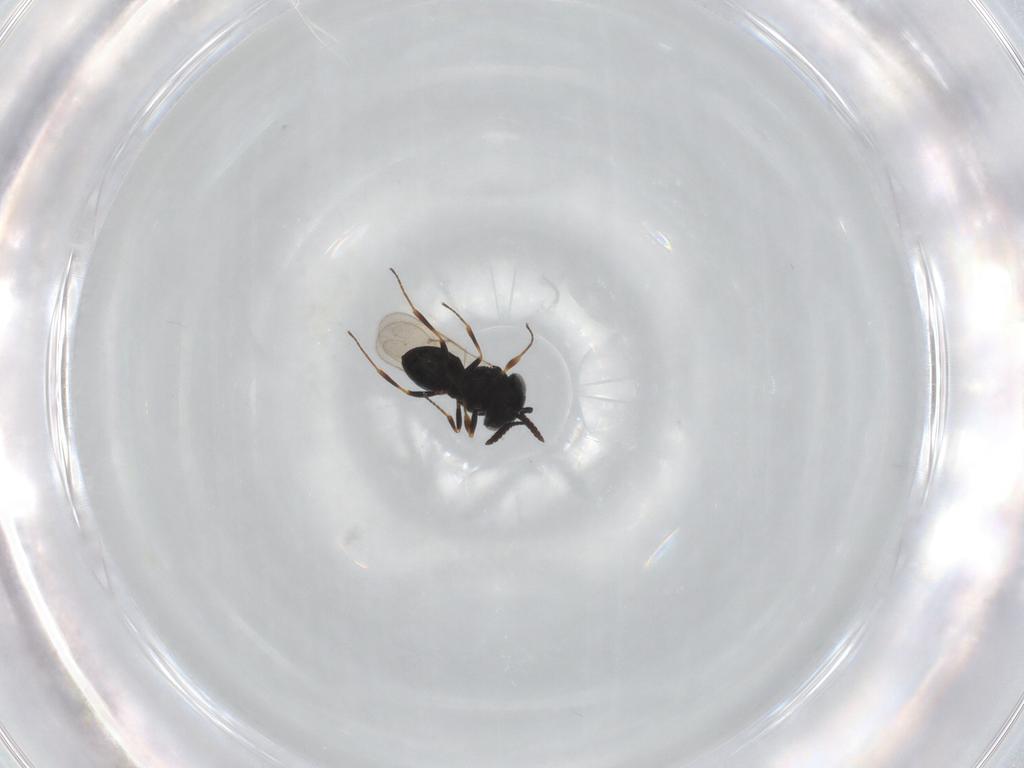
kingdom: Animalia
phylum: Arthropoda
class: Insecta
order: Hymenoptera
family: Scelionidae
